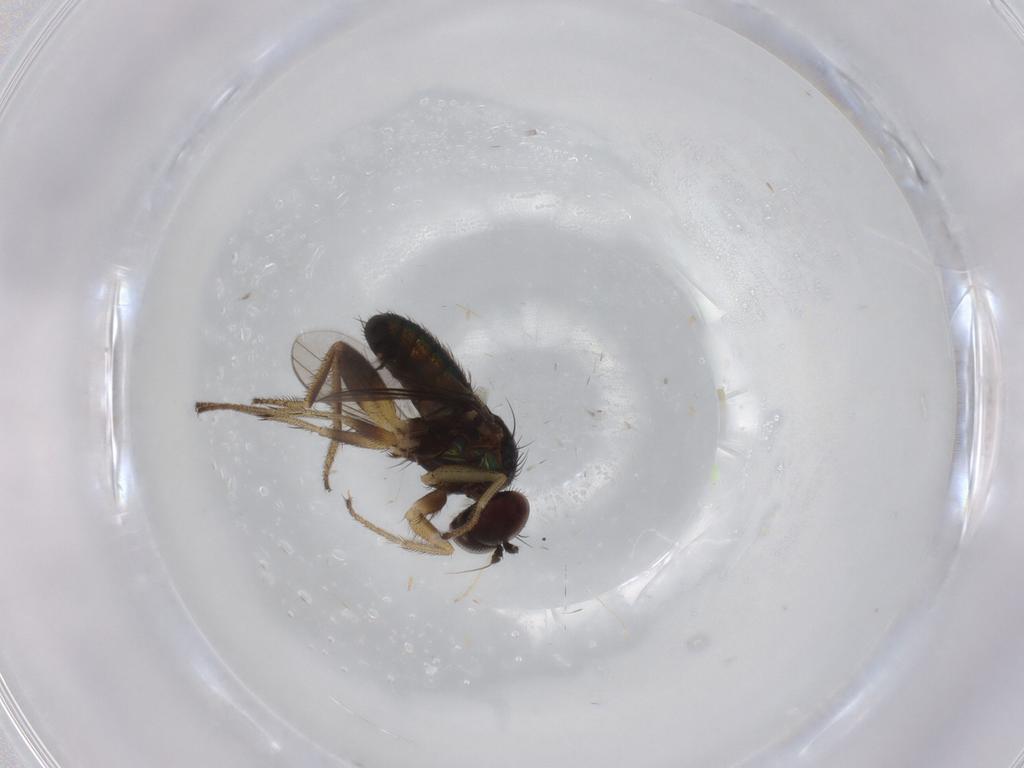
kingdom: Animalia
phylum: Arthropoda
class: Insecta
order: Diptera
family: Dolichopodidae
